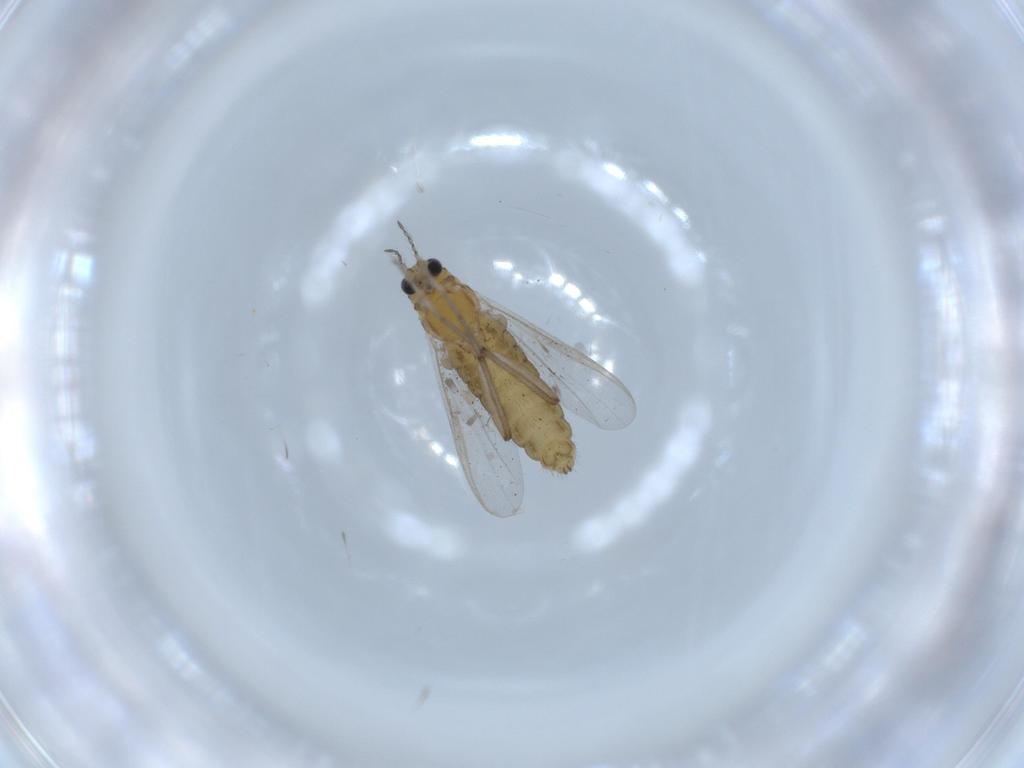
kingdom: Animalia
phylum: Arthropoda
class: Insecta
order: Diptera
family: Chironomidae
